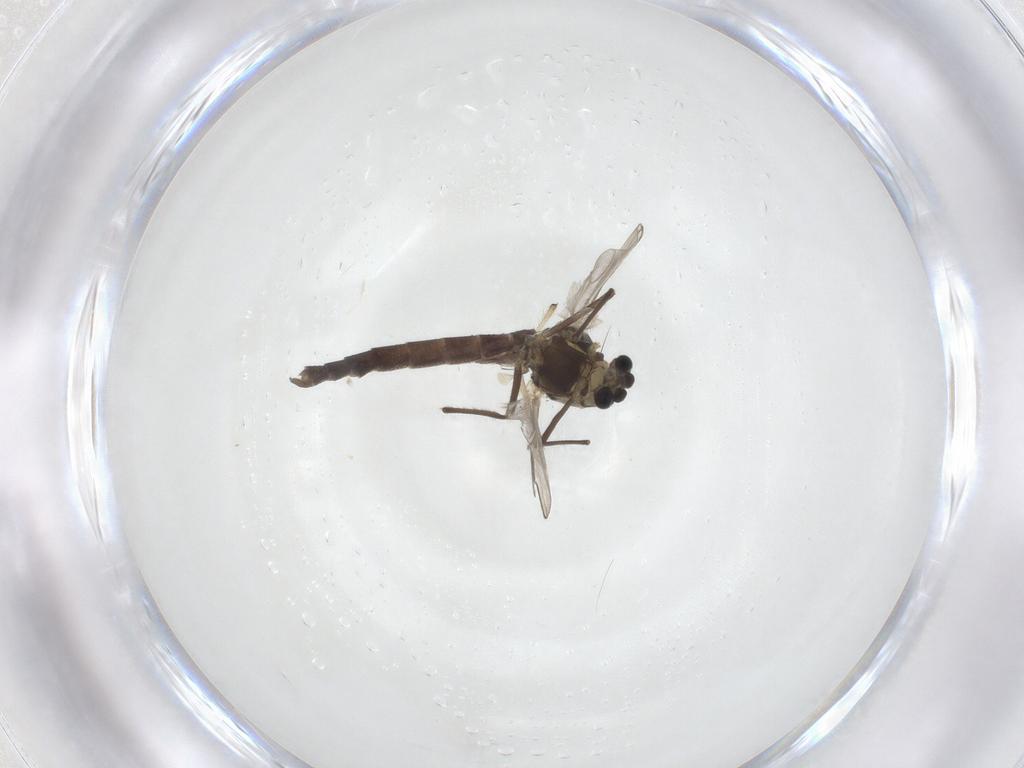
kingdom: Animalia
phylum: Arthropoda
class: Insecta
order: Diptera
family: Chironomidae
